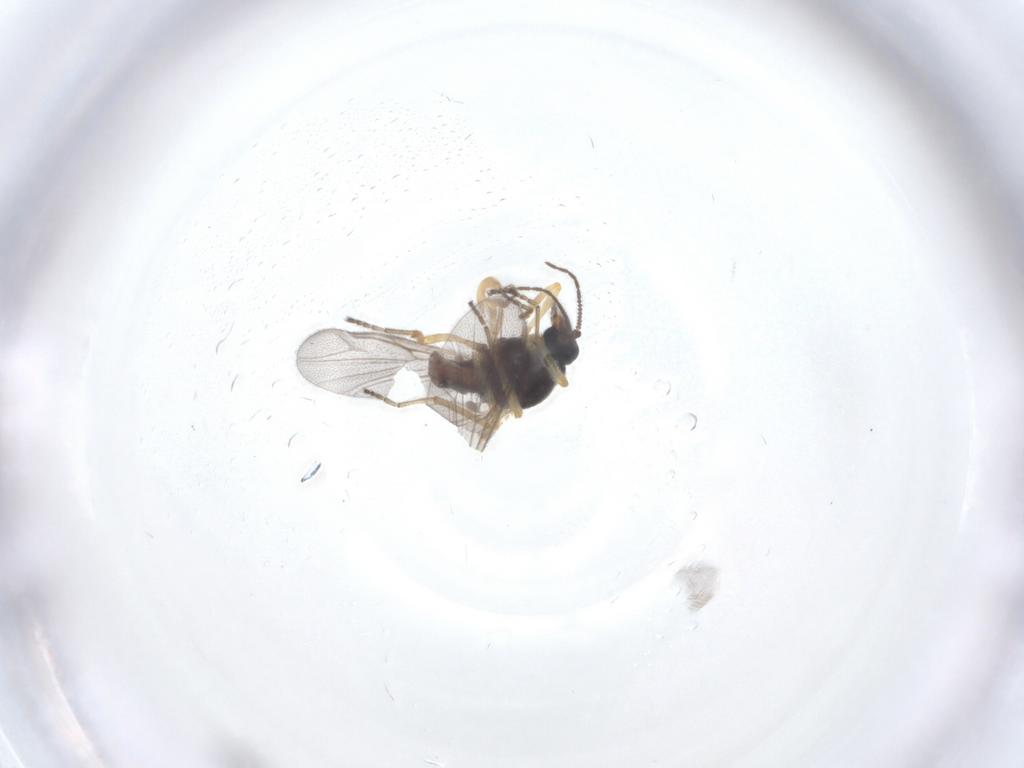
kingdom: Animalia
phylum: Arthropoda
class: Insecta
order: Diptera
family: Ceratopogonidae
